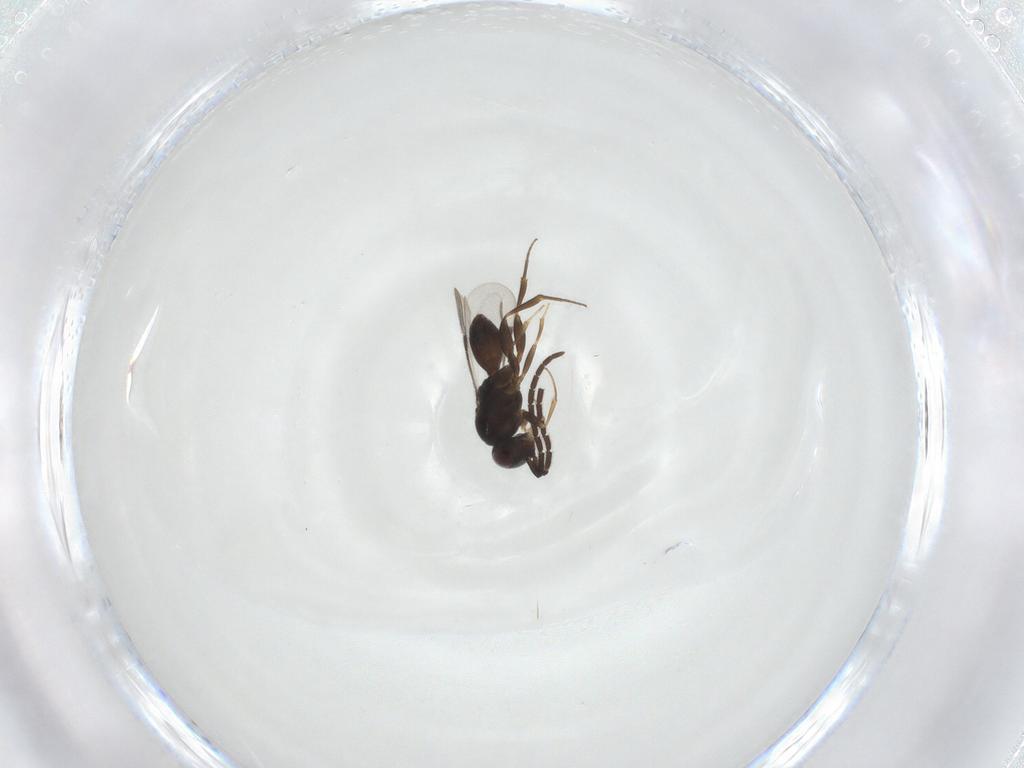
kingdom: Animalia
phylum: Arthropoda
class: Insecta
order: Hymenoptera
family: Megaspilidae
